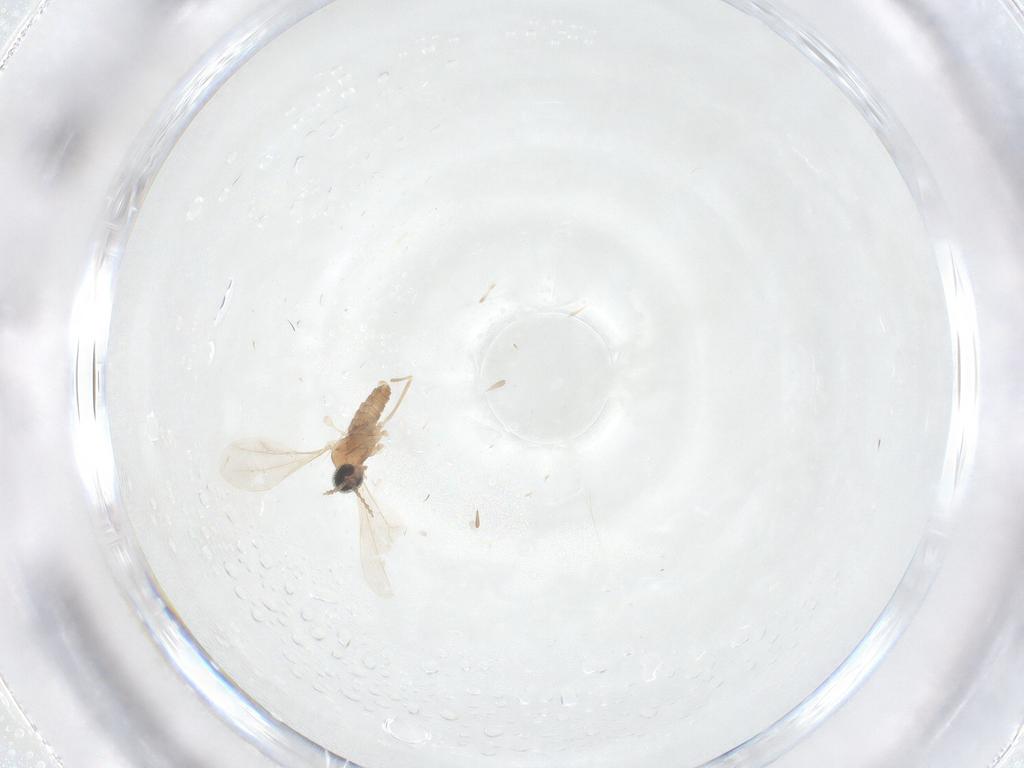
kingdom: Animalia
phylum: Arthropoda
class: Insecta
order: Diptera
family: Cecidomyiidae
